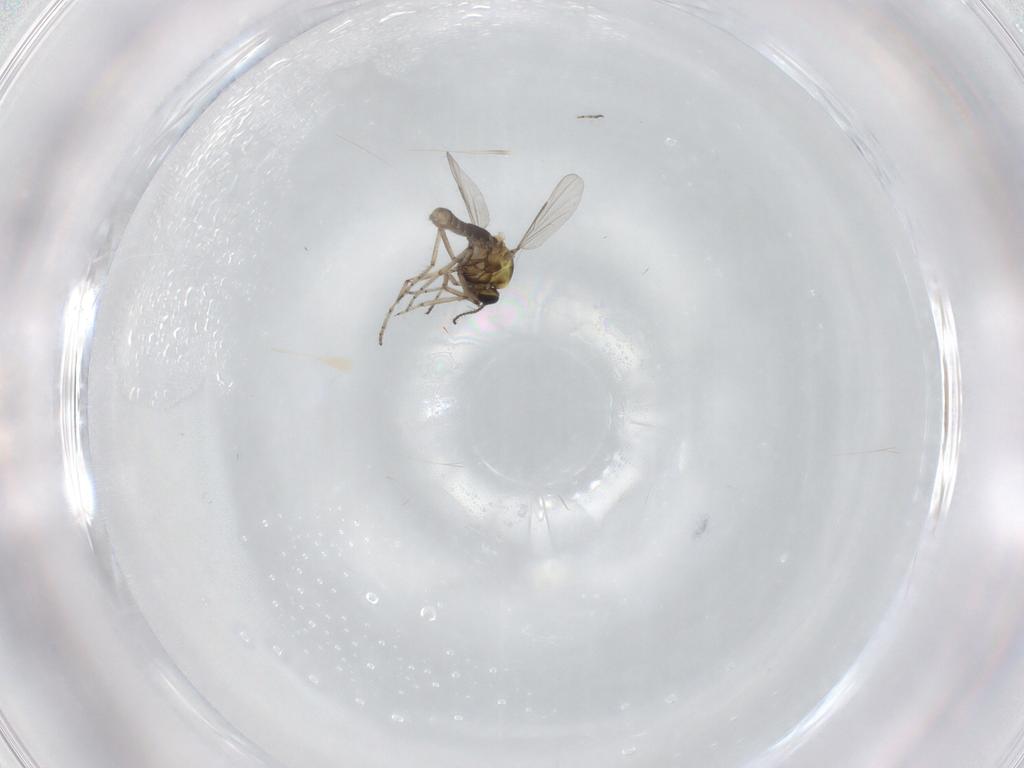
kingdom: Animalia
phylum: Arthropoda
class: Insecta
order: Diptera
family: Ceratopogonidae
